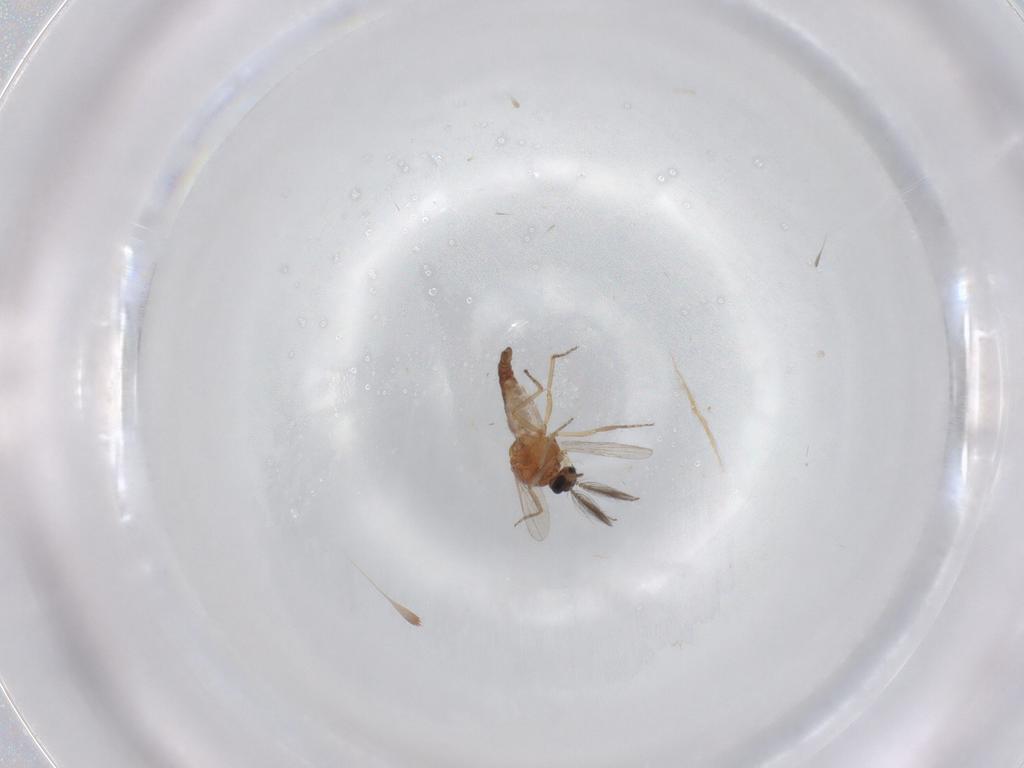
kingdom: Animalia
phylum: Arthropoda
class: Insecta
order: Diptera
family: Ceratopogonidae
